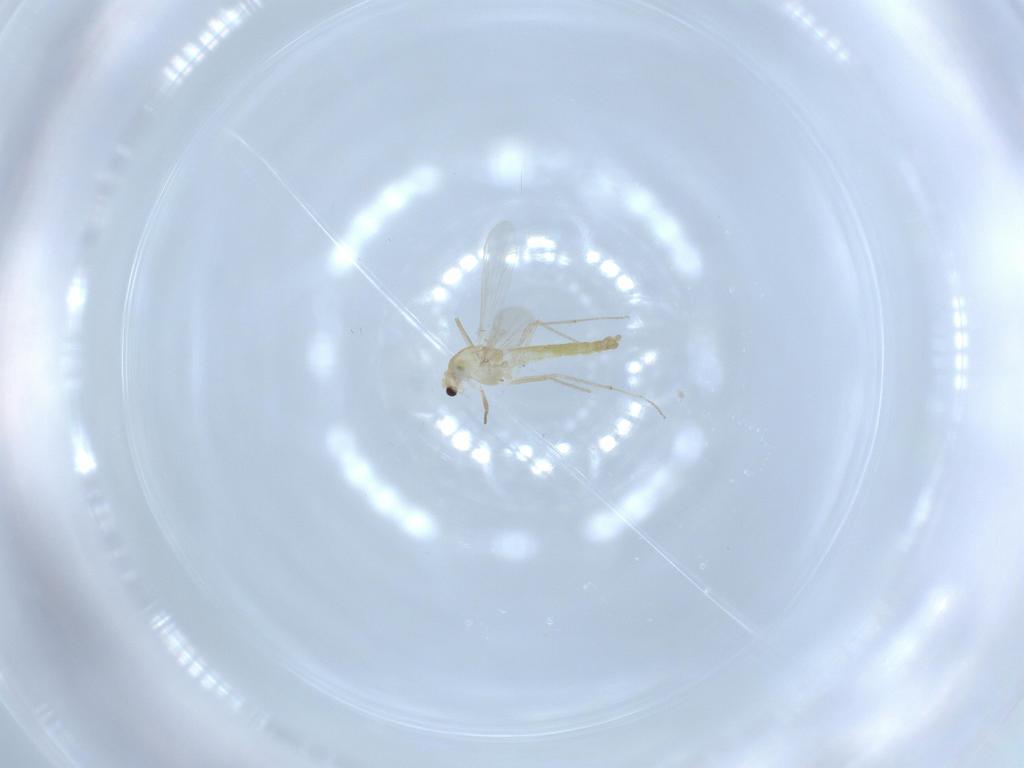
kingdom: Animalia
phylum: Arthropoda
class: Insecta
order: Diptera
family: Chironomidae
